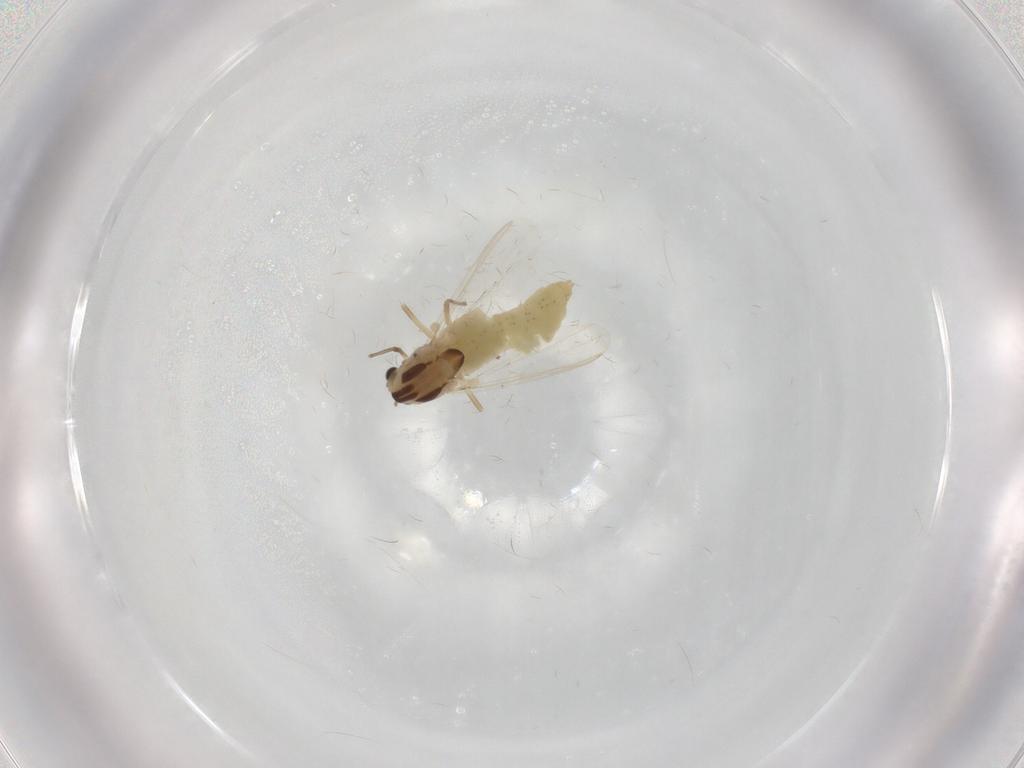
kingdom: Animalia
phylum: Arthropoda
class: Insecta
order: Diptera
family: Chironomidae
